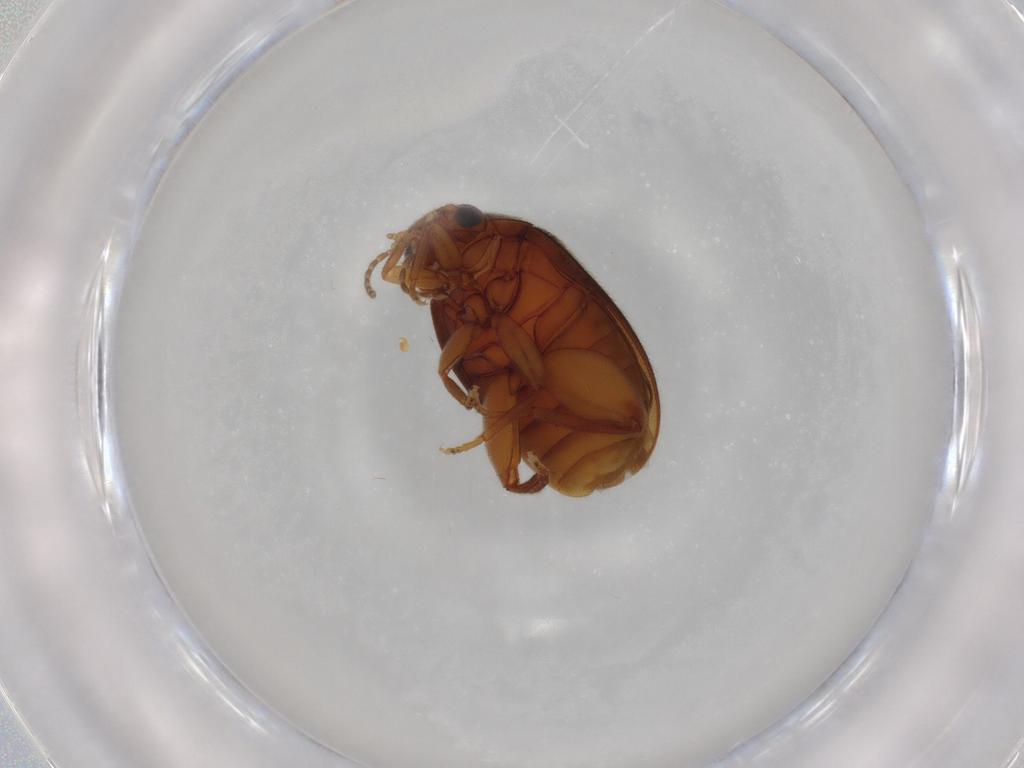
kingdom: Animalia
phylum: Arthropoda
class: Insecta
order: Coleoptera
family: Scirtidae
